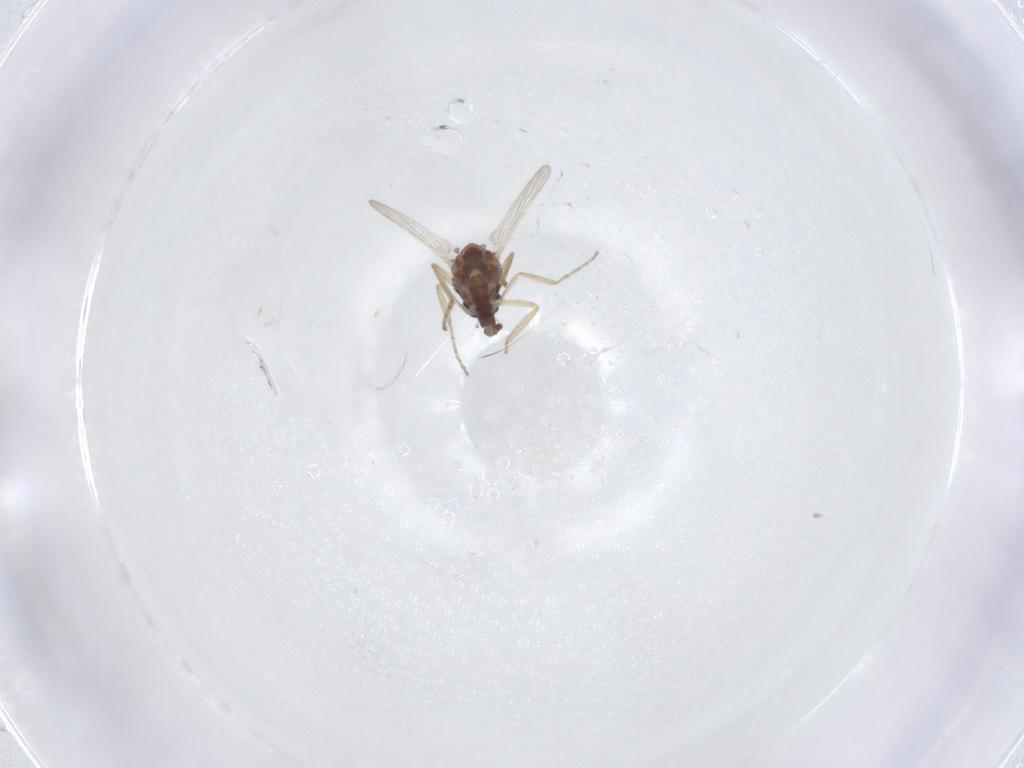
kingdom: Animalia
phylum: Arthropoda
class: Insecta
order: Diptera
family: Ceratopogonidae
